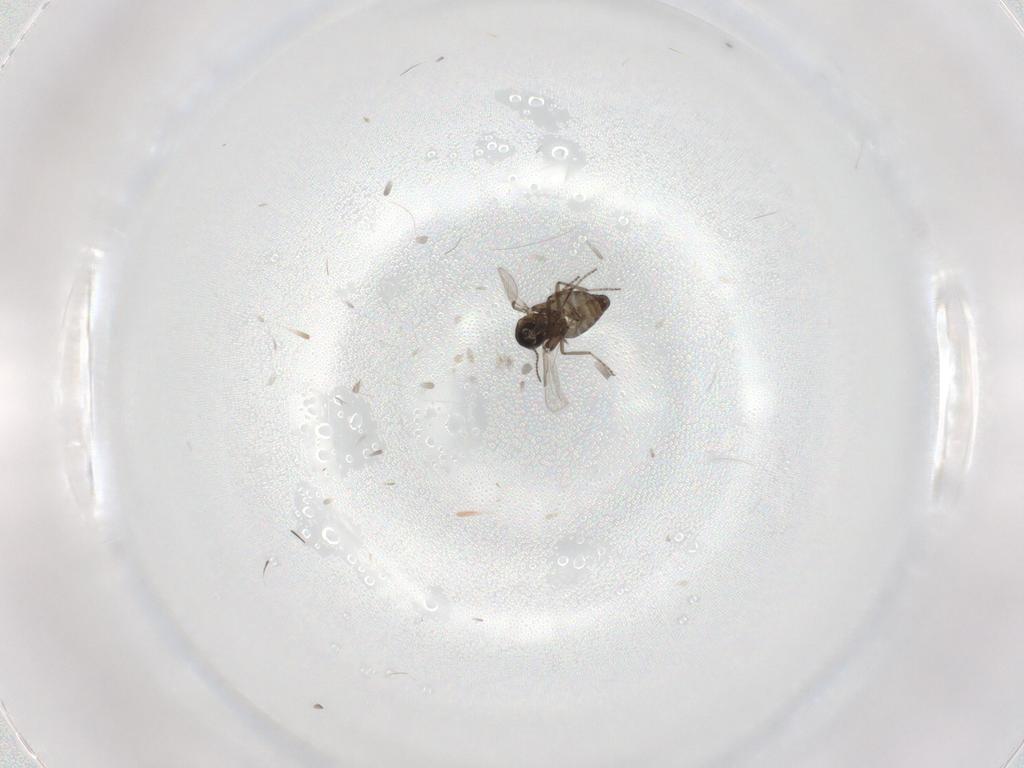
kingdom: Animalia
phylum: Arthropoda
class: Insecta
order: Diptera
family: Ceratopogonidae
